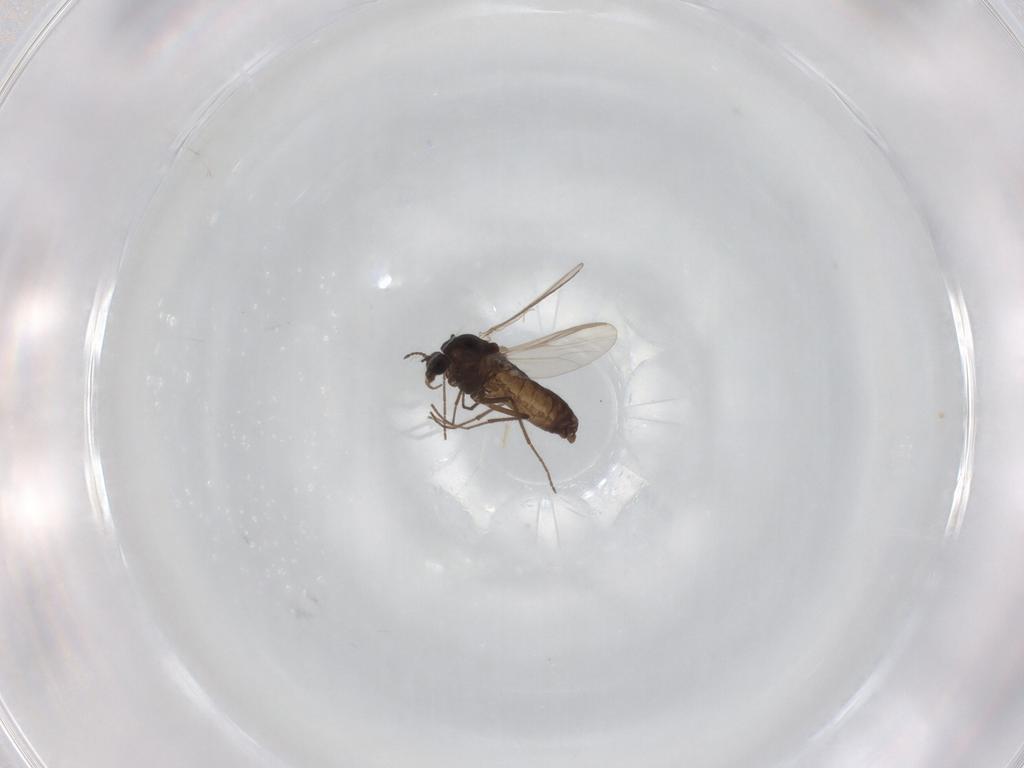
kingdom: Animalia
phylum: Arthropoda
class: Insecta
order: Diptera
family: Chironomidae
